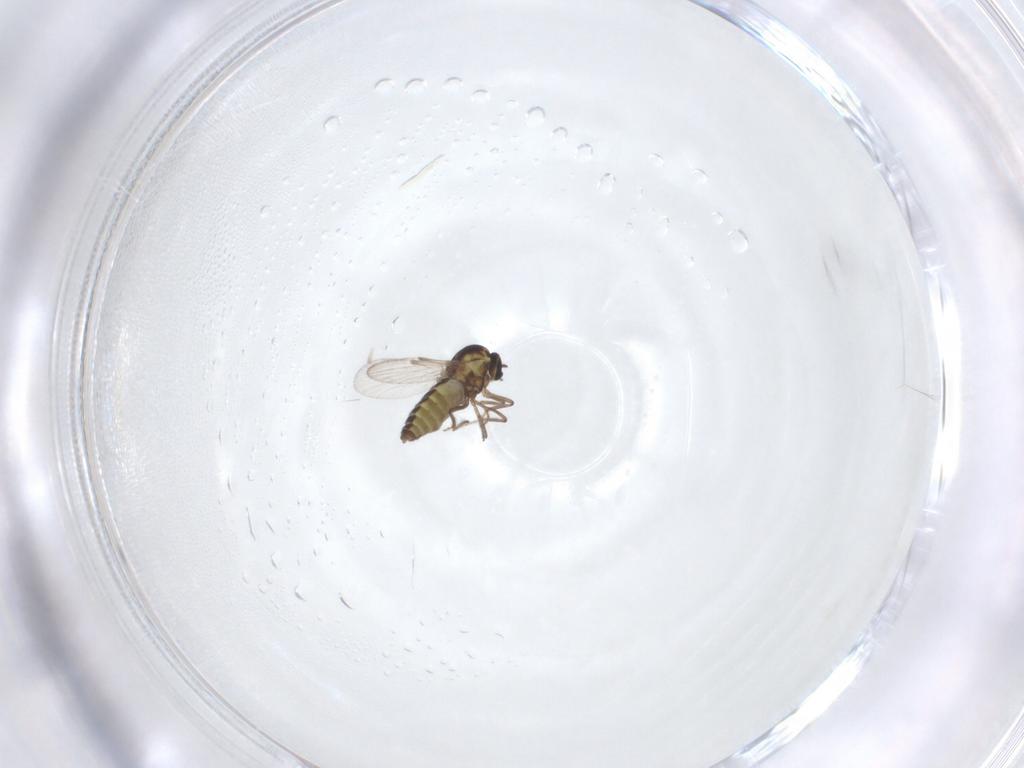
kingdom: Animalia
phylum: Arthropoda
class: Insecta
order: Diptera
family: Ceratopogonidae
